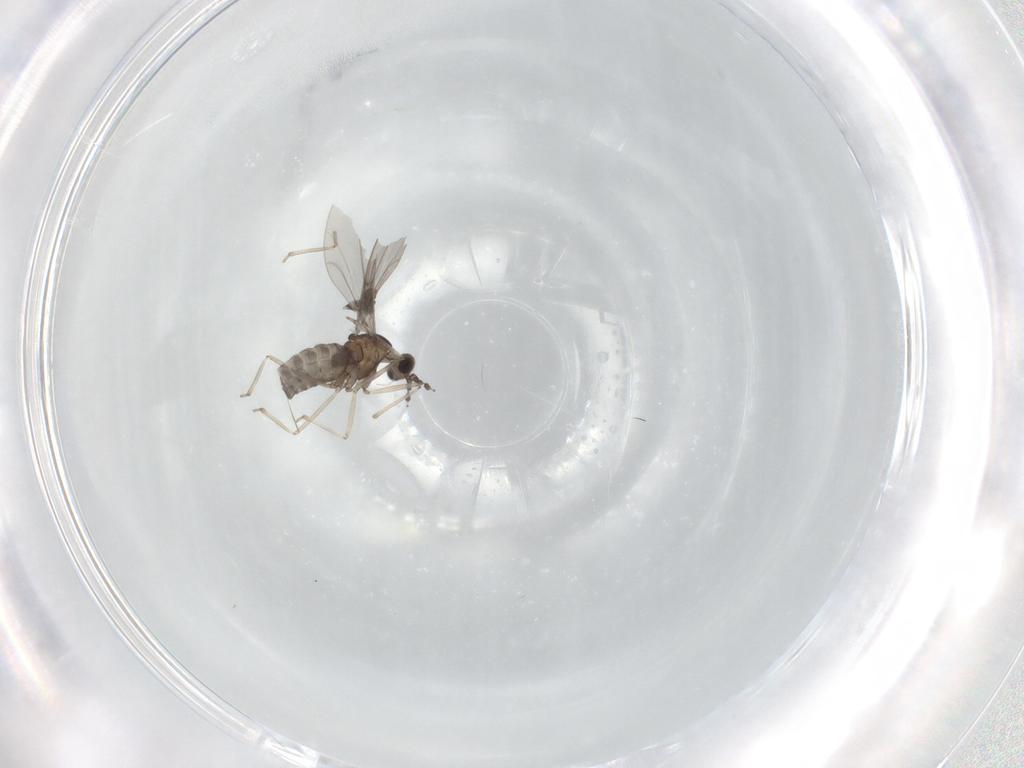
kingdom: Animalia
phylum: Arthropoda
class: Insecta
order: Diptera
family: Cecidomyiidae
